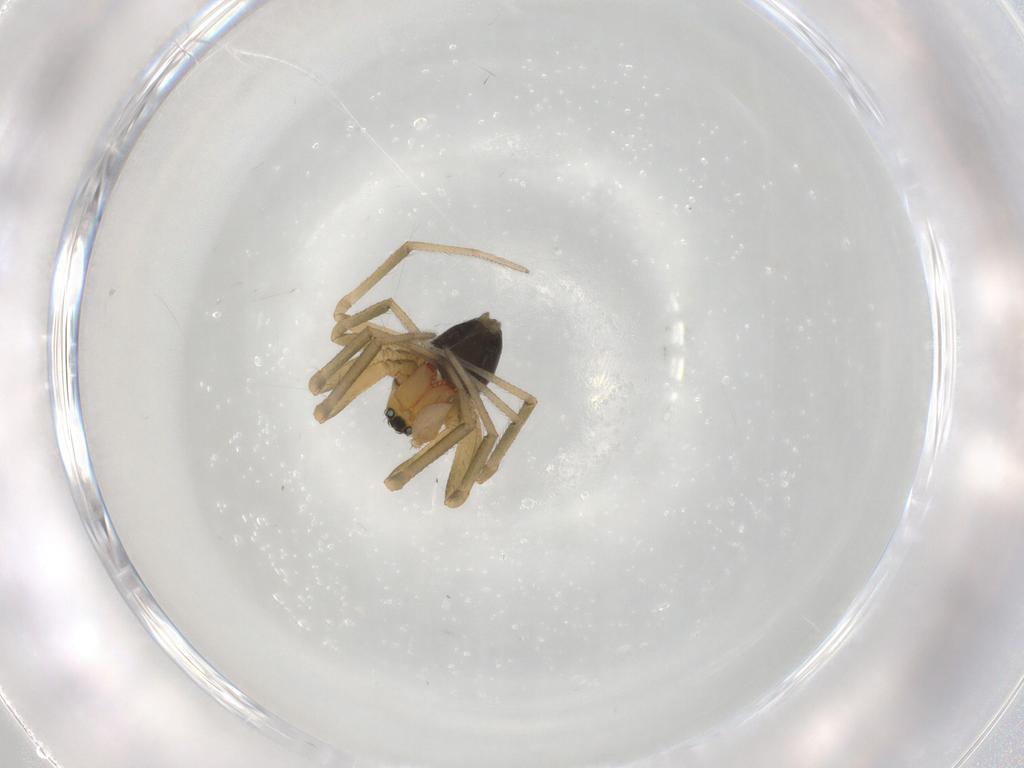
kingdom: Animalia
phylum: Arthropoda
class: Arachnida
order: Araneae
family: Linyphiidae
